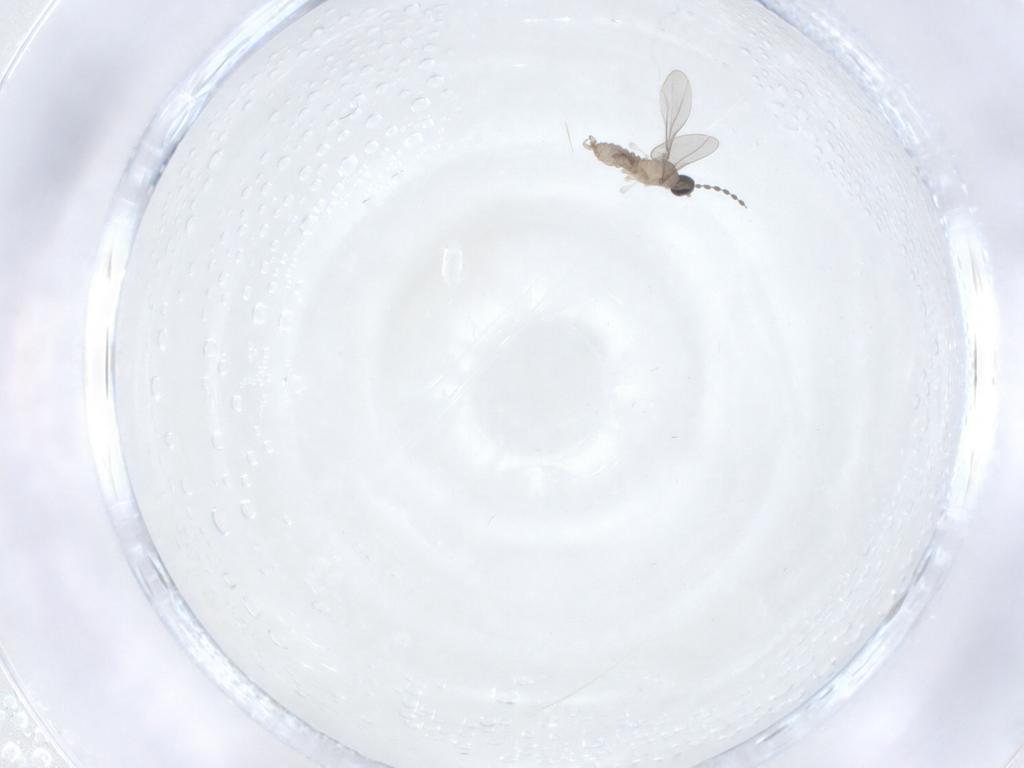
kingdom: Animalia
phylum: Arthropoda
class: Insecta
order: Diptera
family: Cecidomyiidae
